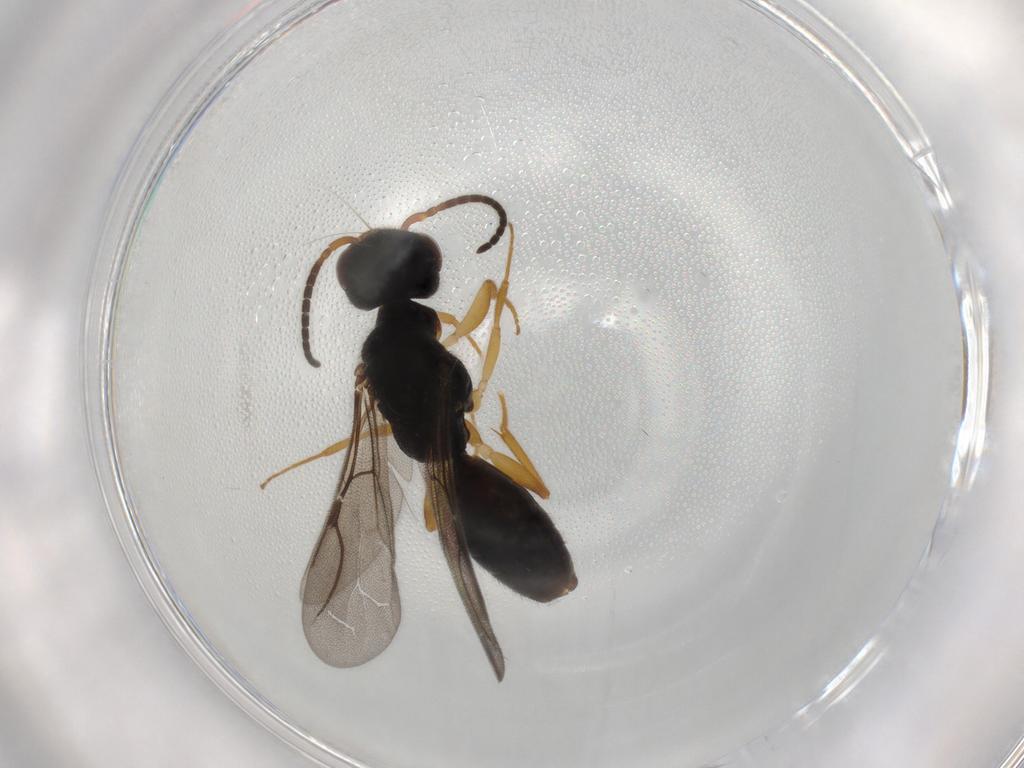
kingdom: Animalia
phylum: Arthropoda
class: Insecta
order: Hymenoptera
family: Bethylidae
